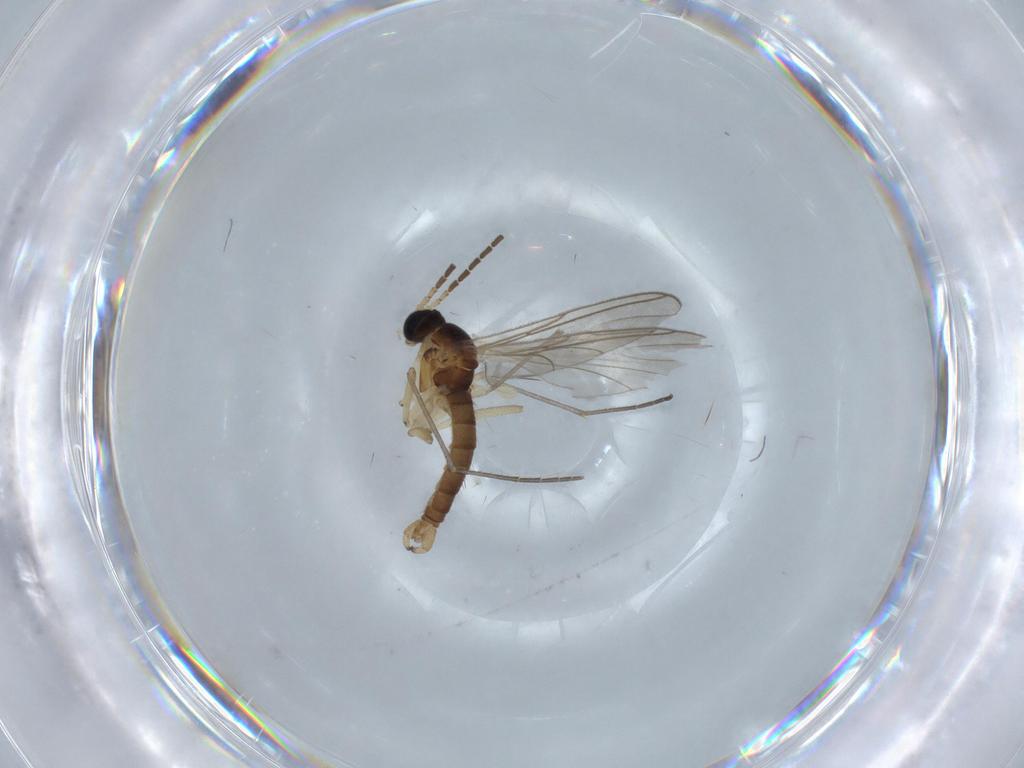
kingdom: Animalia
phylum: Arthropoda
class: Insecta
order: Diptera
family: Sciaridae
